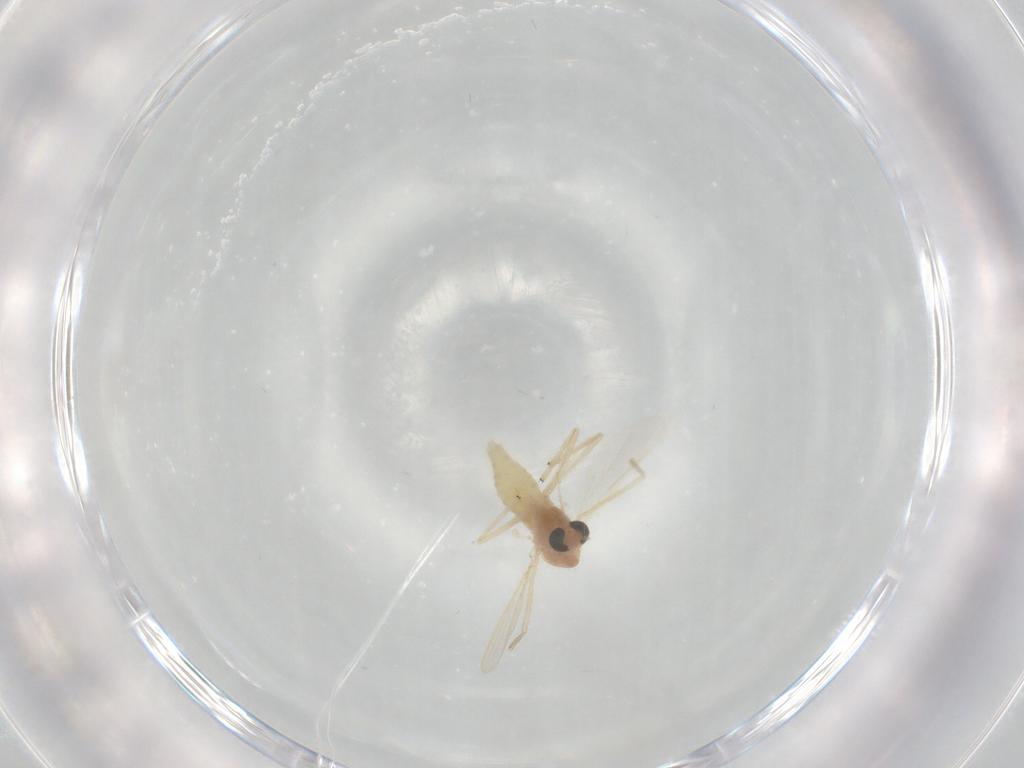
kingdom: Animalia
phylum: Arthropoda
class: Insecta
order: Diptera
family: Chironomidae
